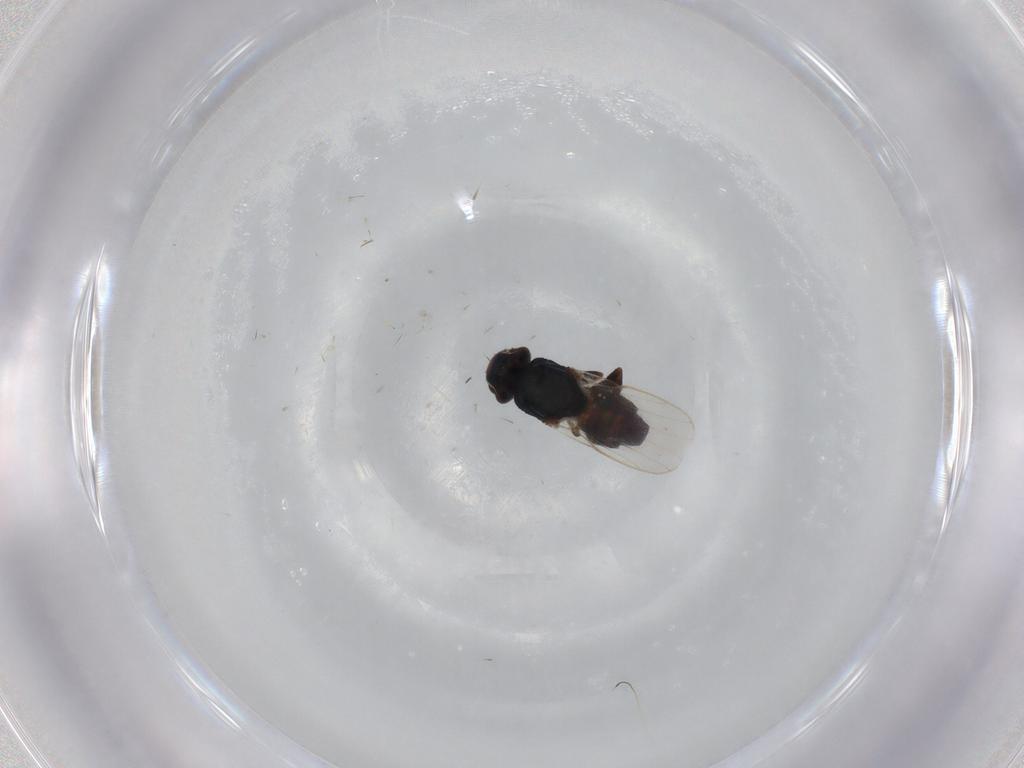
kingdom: Animalia
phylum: Arthropoda
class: Insecta
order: Diptera
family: Chloropidae
